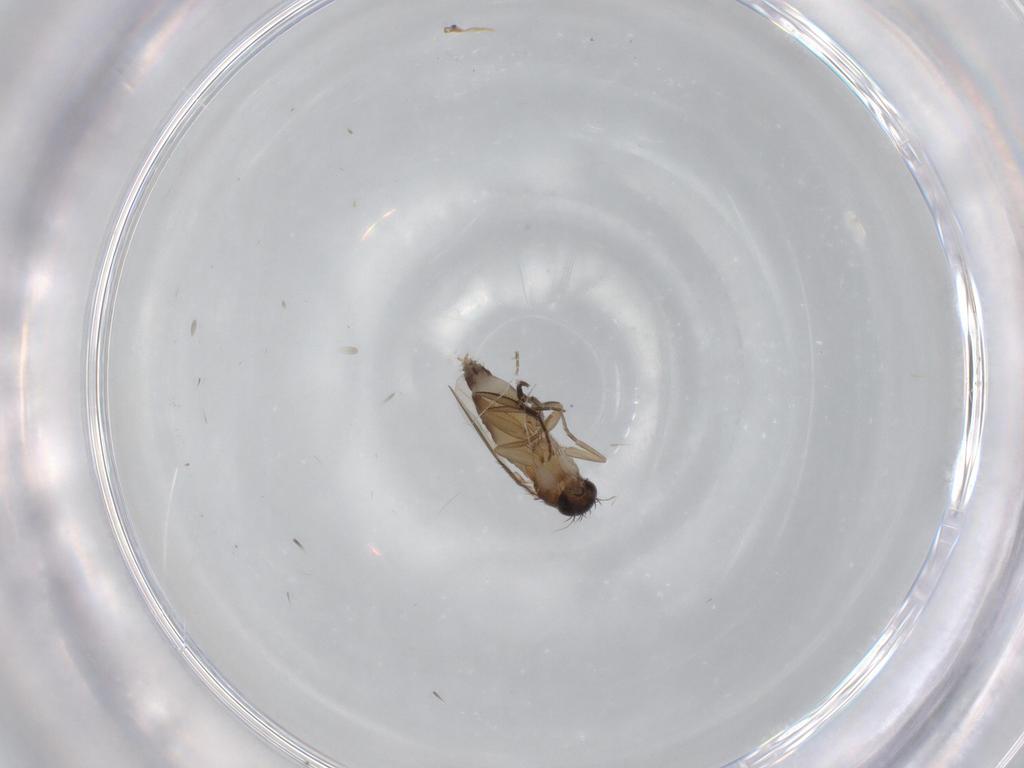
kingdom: Animalia
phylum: Arthropoda
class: Insecta
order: Diptera
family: Phoridae
